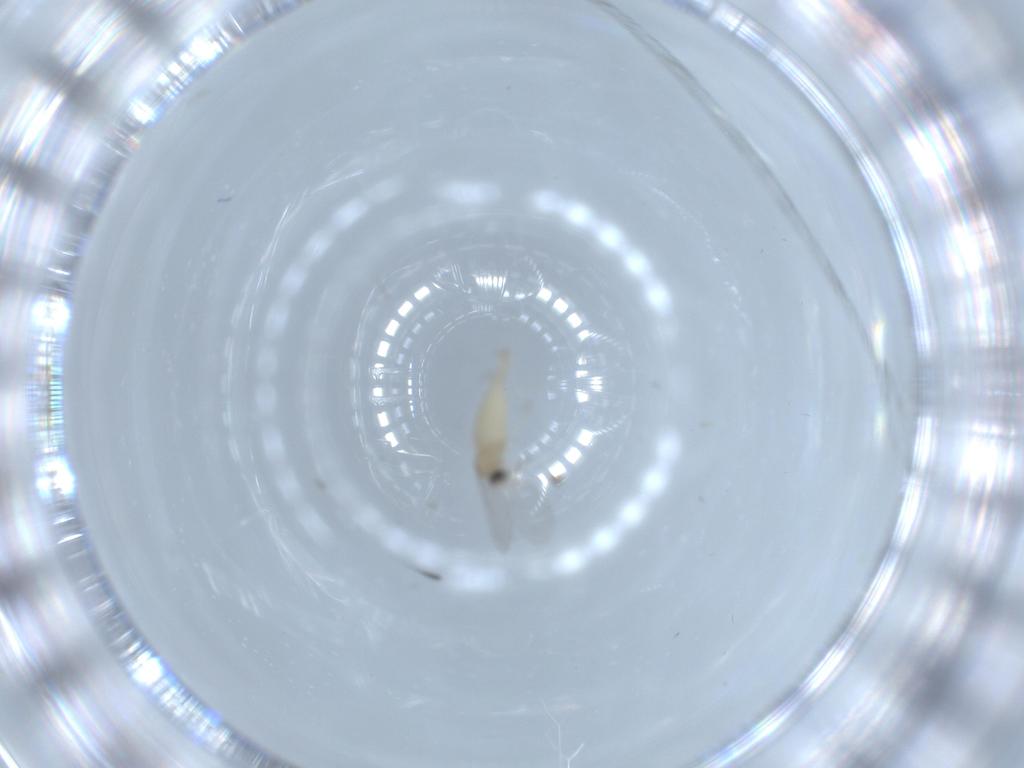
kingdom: Animalia
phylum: Arthropoda
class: Insecta
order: Diptera
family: Cecidomyiidae
